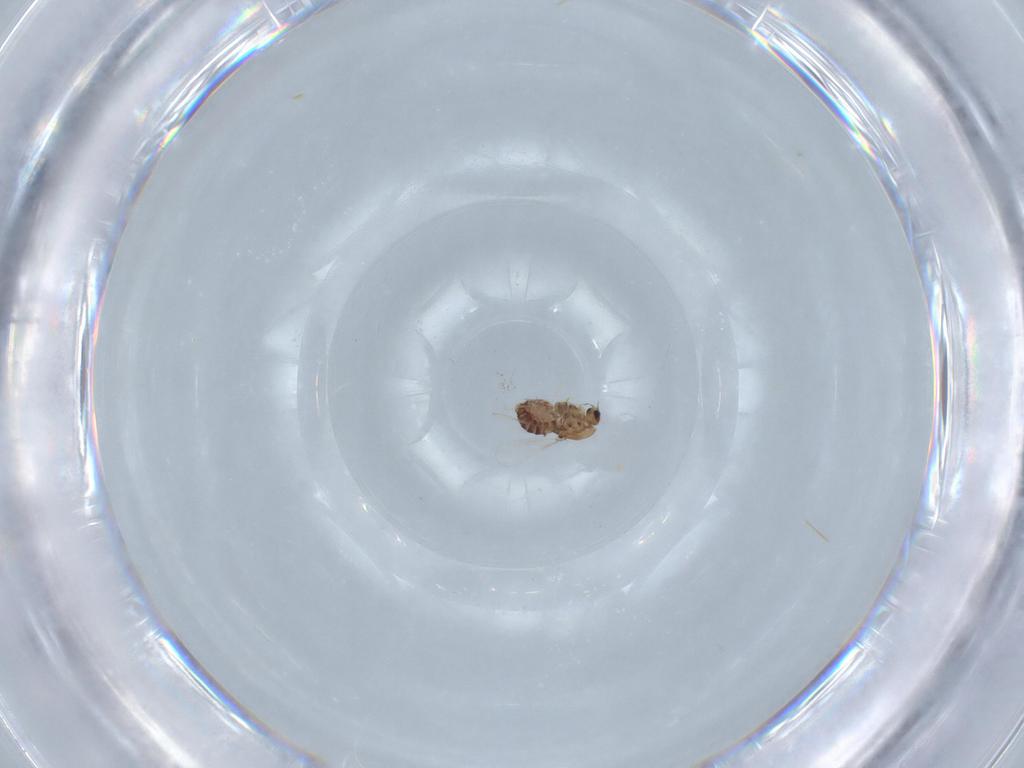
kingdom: Animalia
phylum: Arthropoda
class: Insecta
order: Diptera
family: Chironomidae
